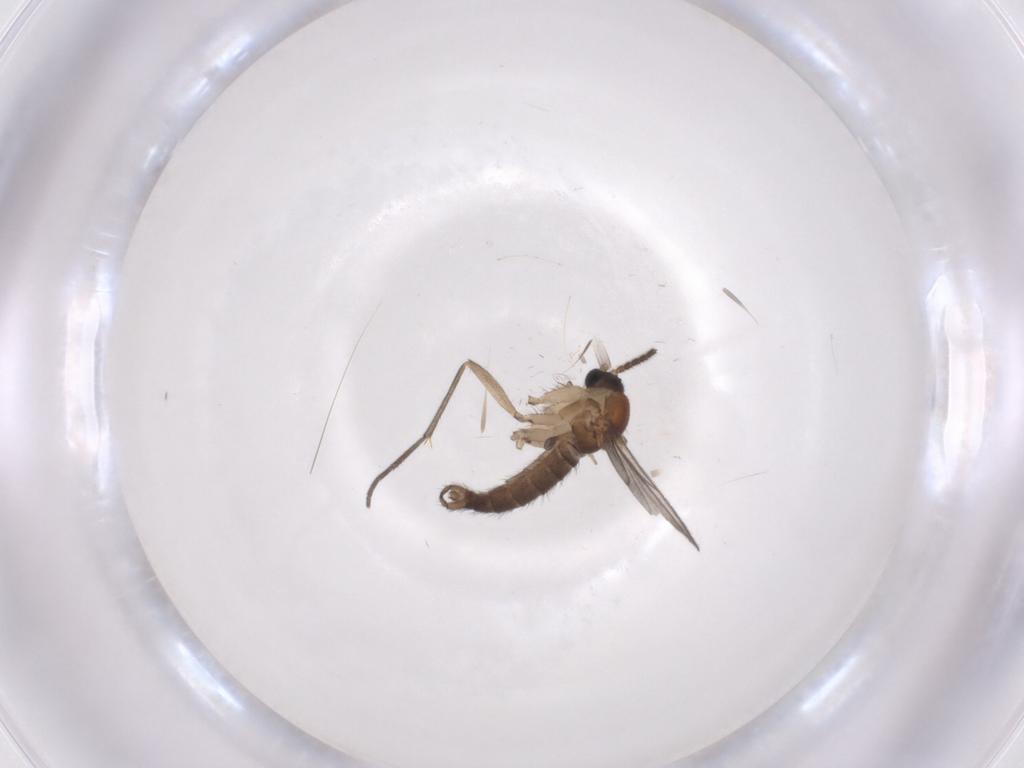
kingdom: Animalia
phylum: Arthropoda
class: Insecta
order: Diptera
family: Sciaridae
